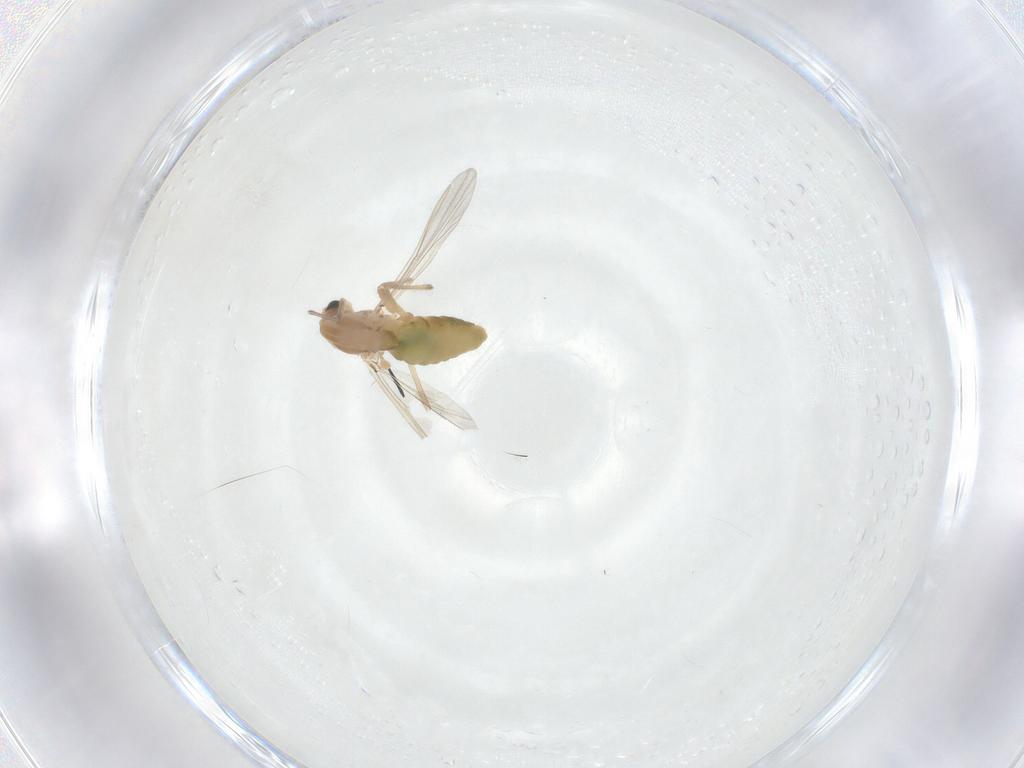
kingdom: Animalia
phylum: Arthropoda
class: Insecta
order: Diptera
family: Chironomidae
